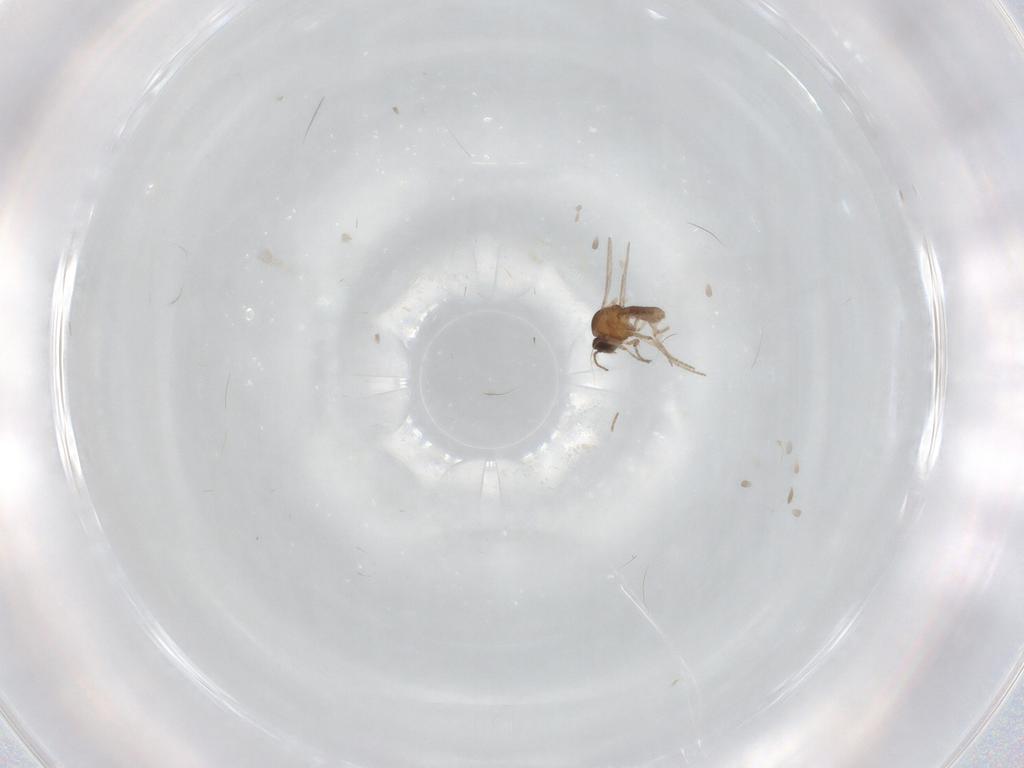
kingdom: Animalia
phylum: Arthropoda
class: Insecta
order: Diptera
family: Ceratopogonidae
